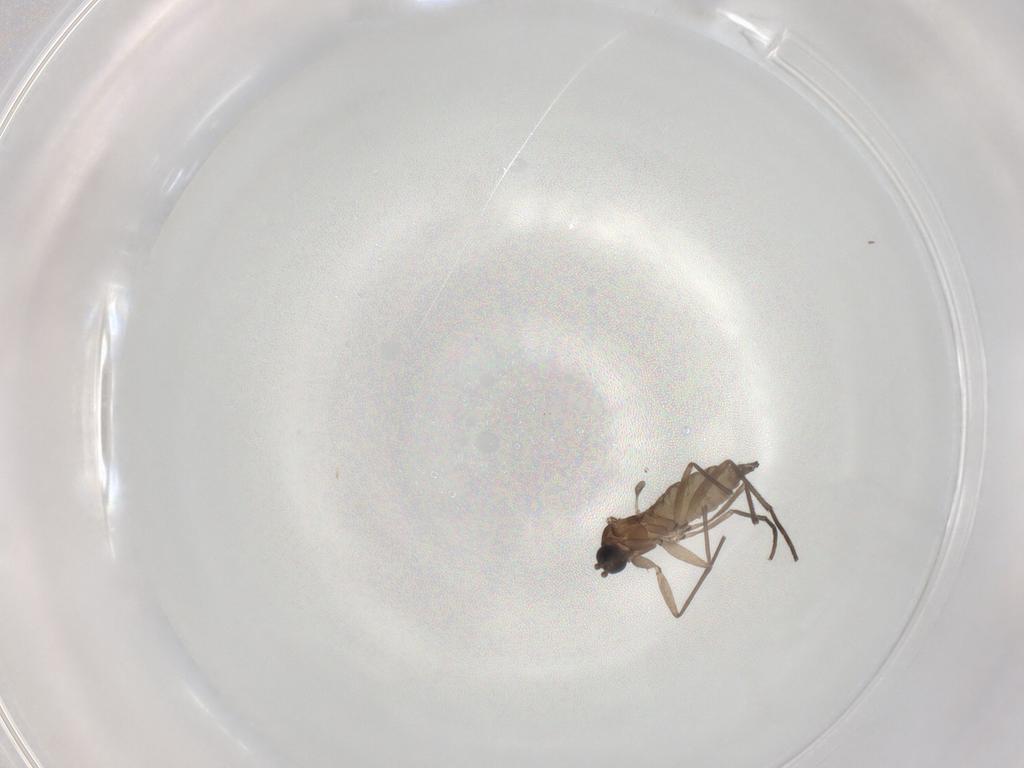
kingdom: Animalia
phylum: Arthropoda
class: Insecta
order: Diptera
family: Sciaridae
